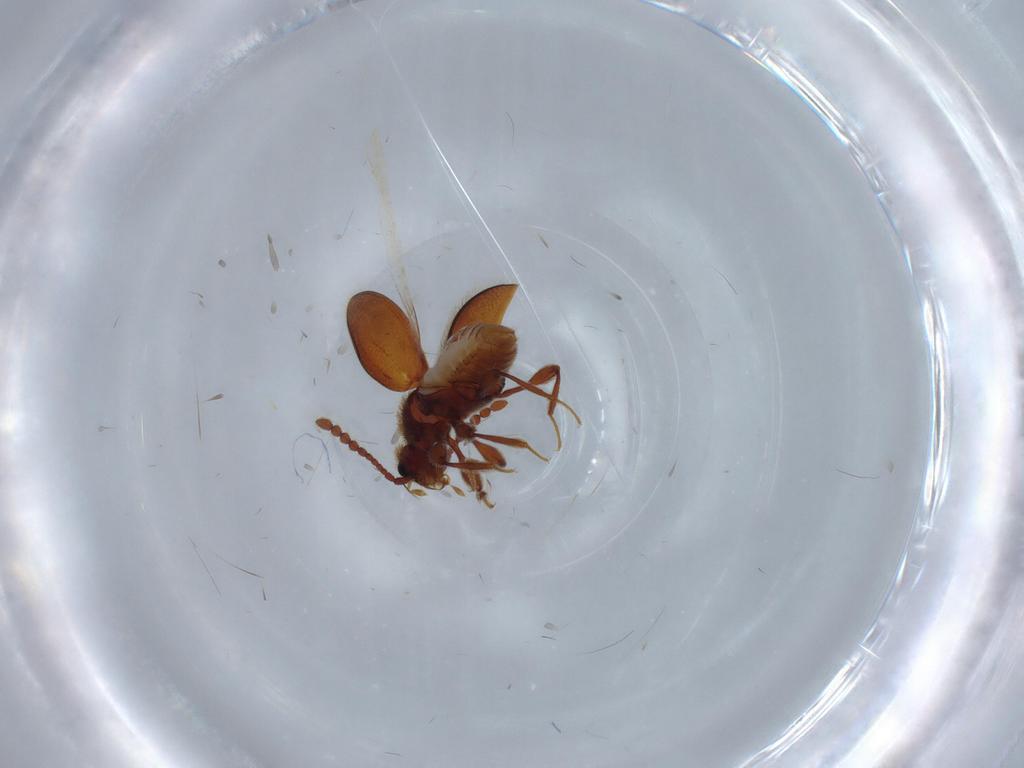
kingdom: Animalia
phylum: Arthropoda
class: Insecta
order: Coleoptera
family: Staphylinidae
